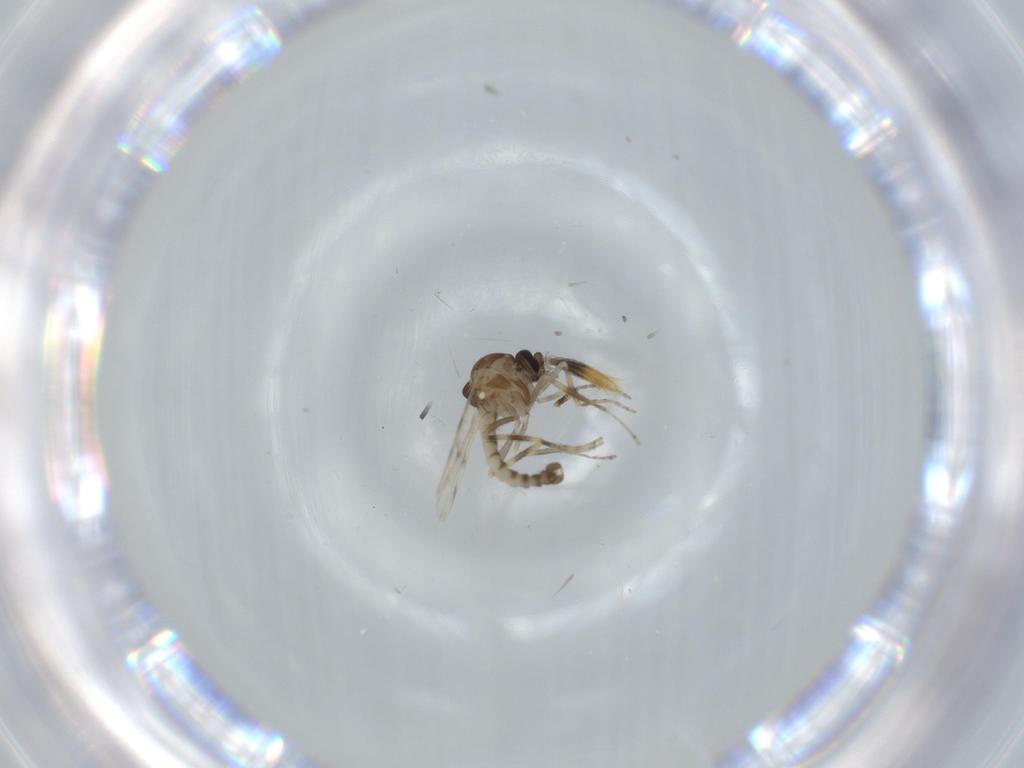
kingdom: Animalia
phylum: Arthropoda
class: Insecta
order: Diptera
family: Ceratopogonidae
